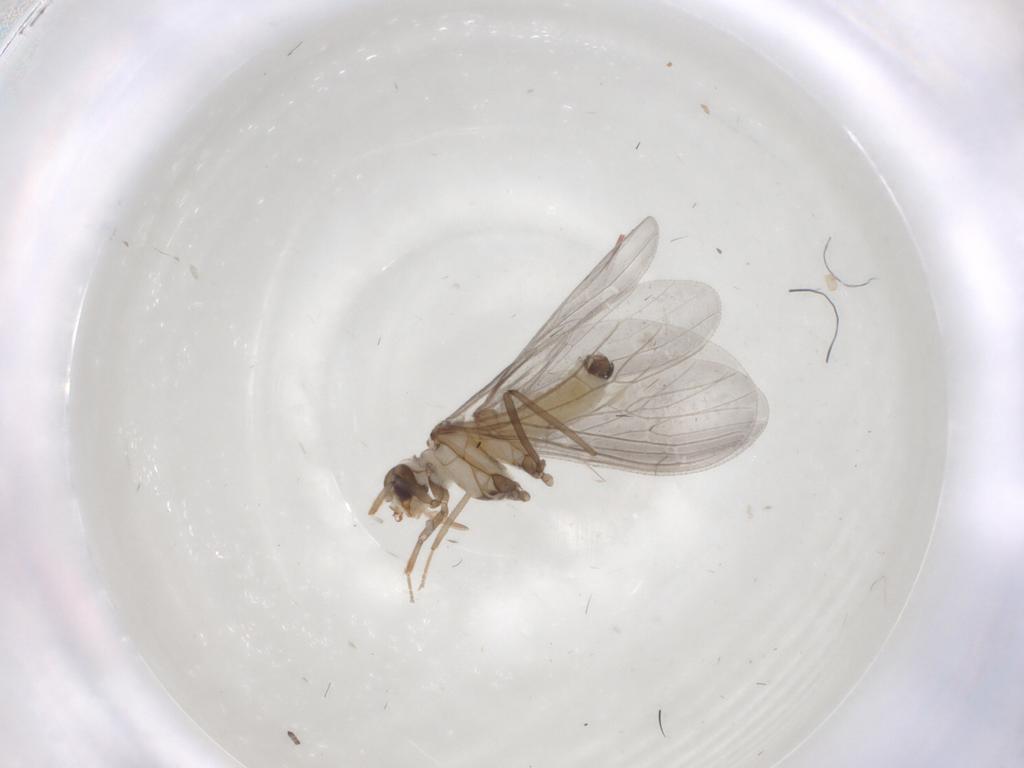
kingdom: Animalia
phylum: Arthropoda
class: Insecta
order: Neuroptera
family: Coniopterygidae
